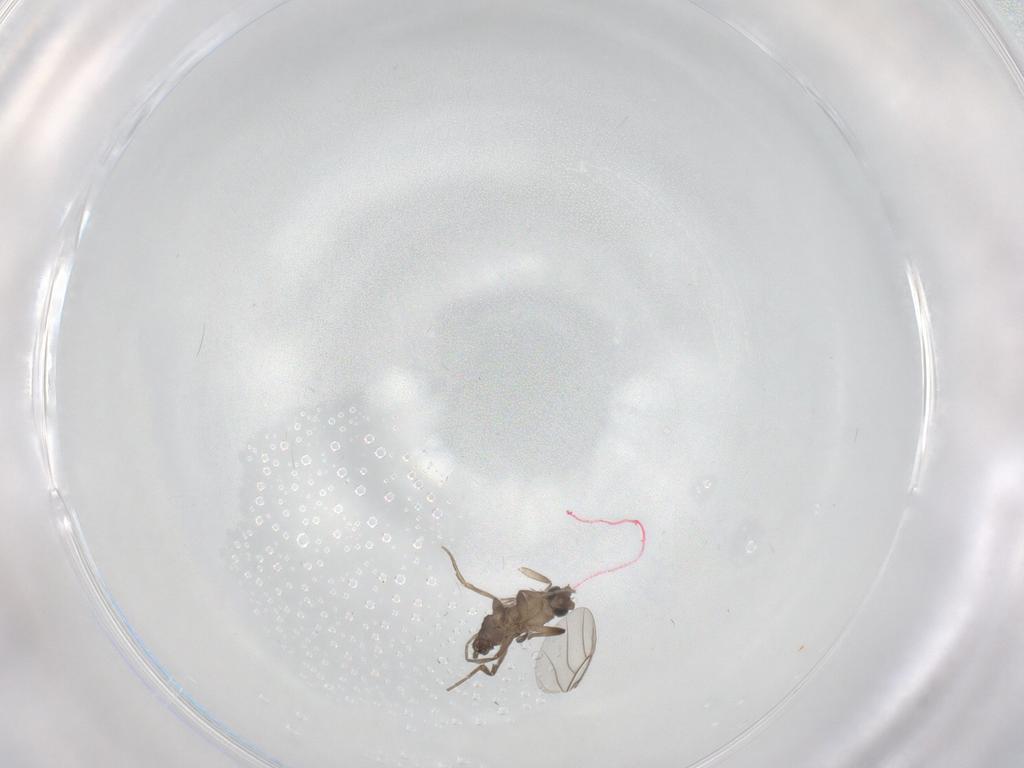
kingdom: Animalia
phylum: Arthropoda
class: Insecta
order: Diptera
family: Phoridae
